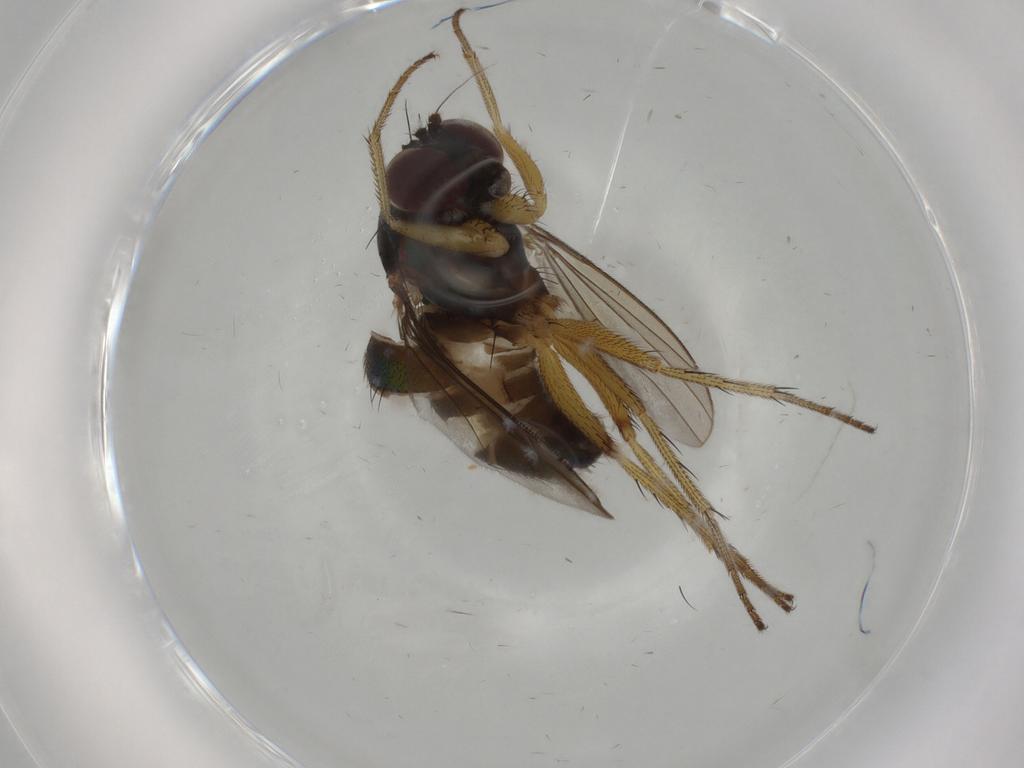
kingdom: Animalia
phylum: Arthropoda
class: Insecta
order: Diptera
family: Dolichopodidae
